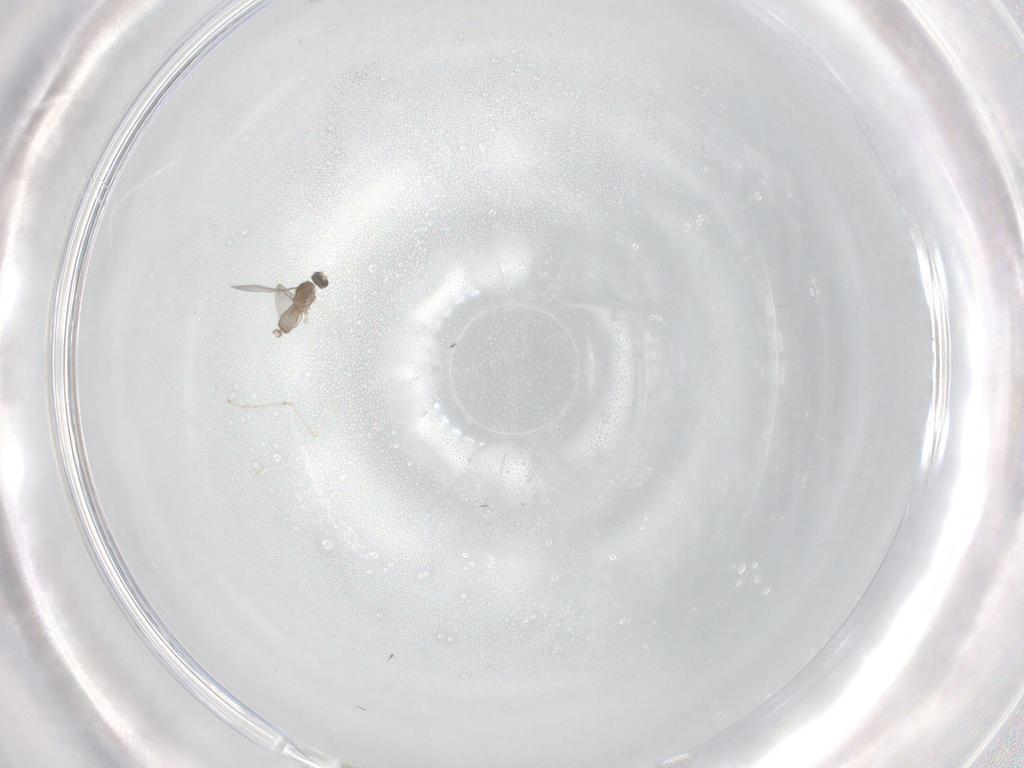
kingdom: Animalia
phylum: Arthropoda
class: Insecta
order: Diptera
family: Cecidomyiidae
